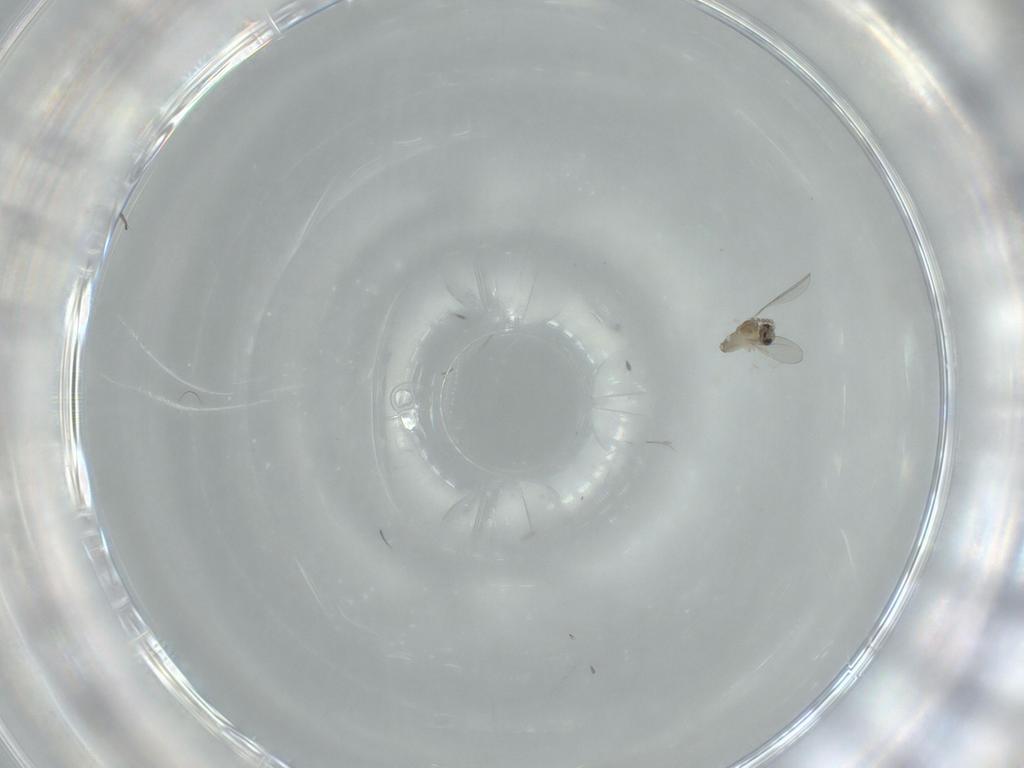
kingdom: Animalia
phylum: Arthropoda
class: Insecta
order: Diptera
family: Cecidomyiidae
